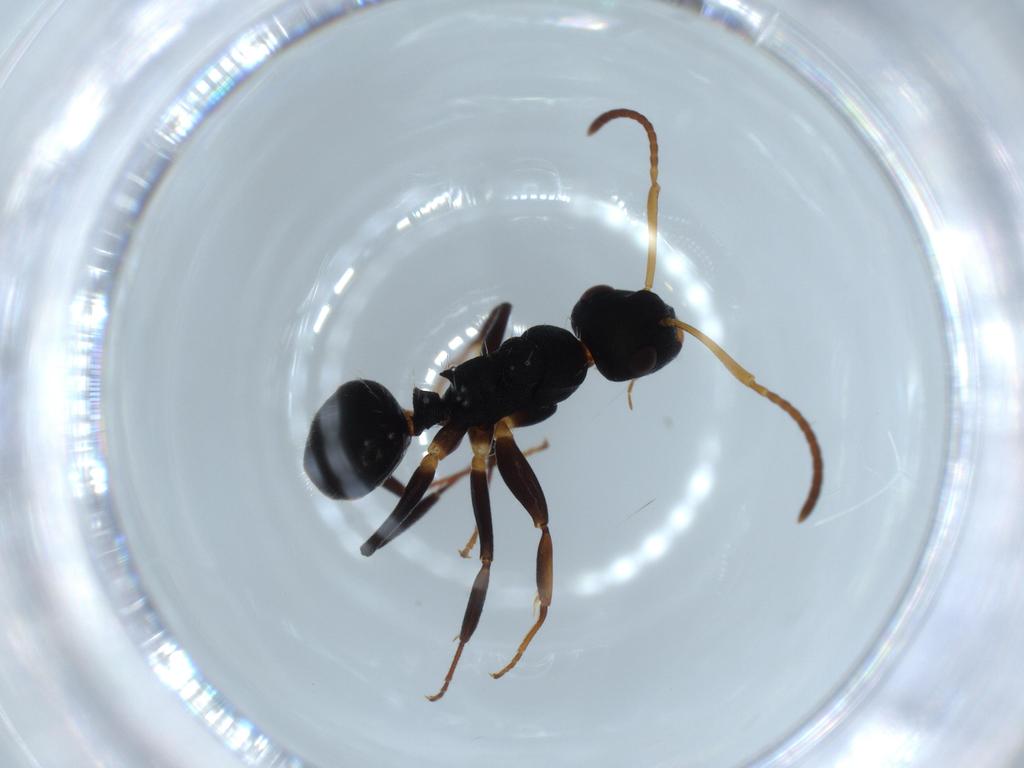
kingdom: Animalia
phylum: Arthropoda
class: Insecta
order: Hymenoptera
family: Formicidae
